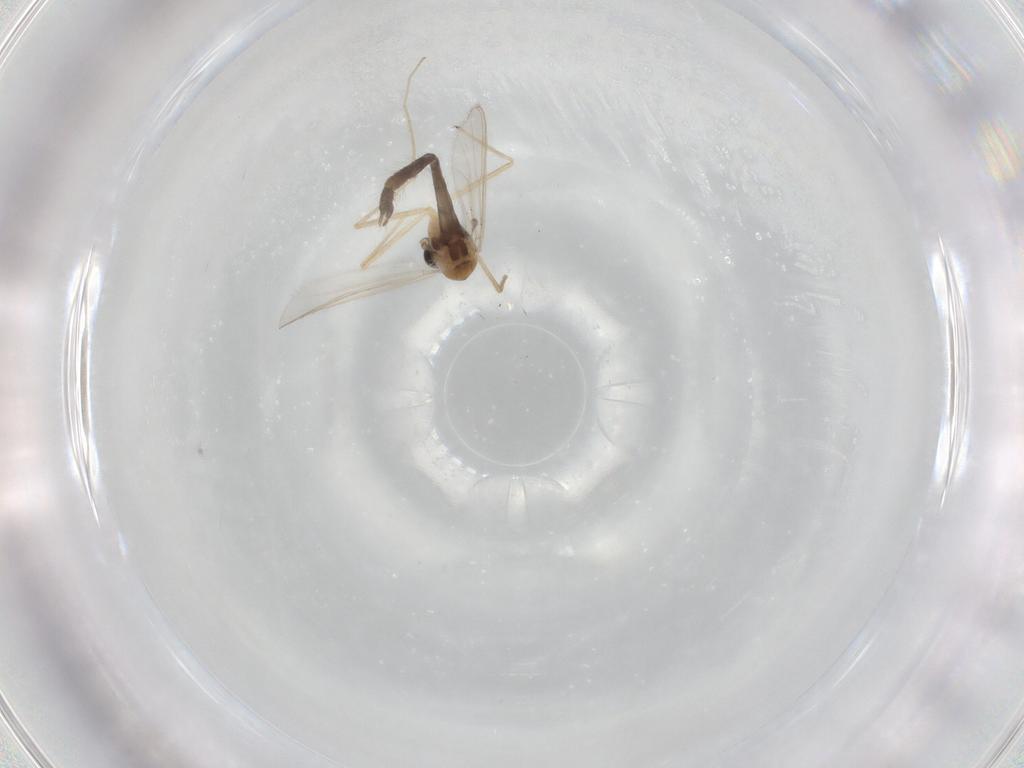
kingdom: Animalia
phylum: Arthropoda
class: Insecta
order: Diptera
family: Chironomidae
